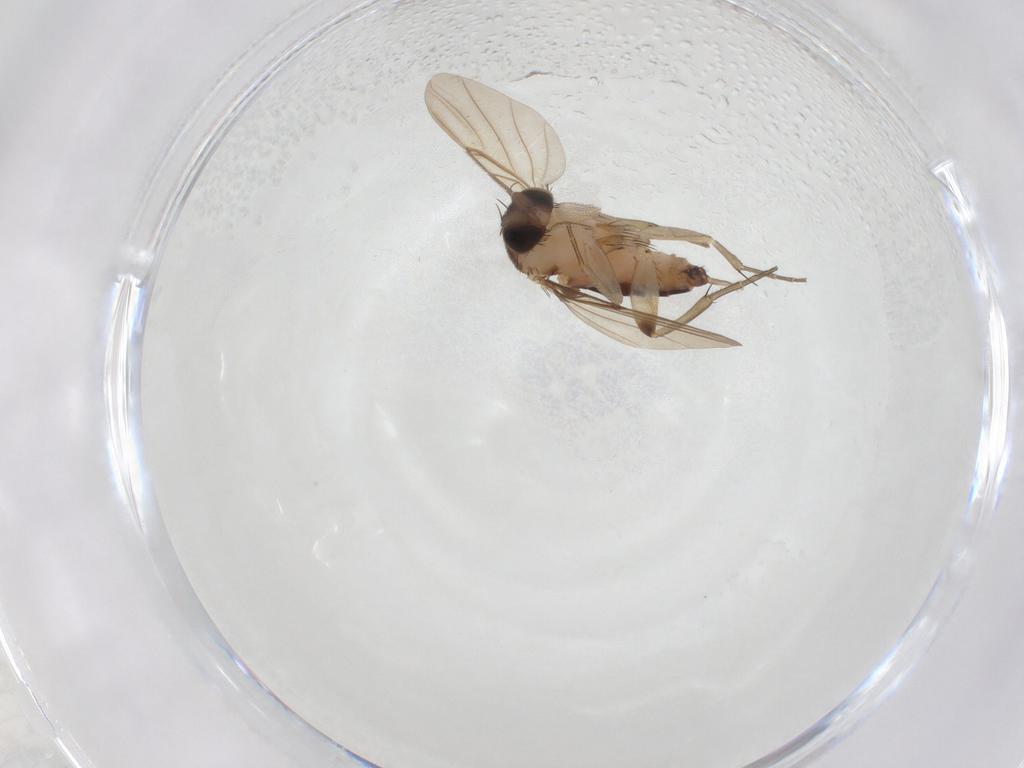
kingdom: Animalia
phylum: Arthropoda
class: Insecta
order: Diptera
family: Phoridae
